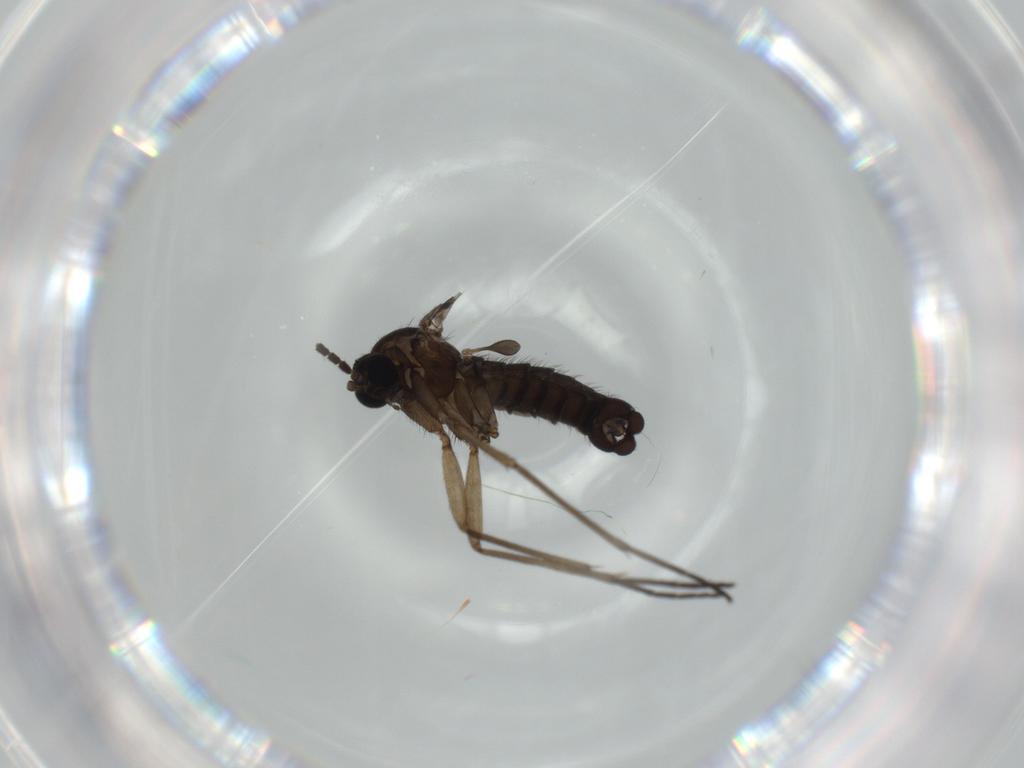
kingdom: Animalia
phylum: Arthropoda
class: Insecta
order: Diptera
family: Sciaridae
